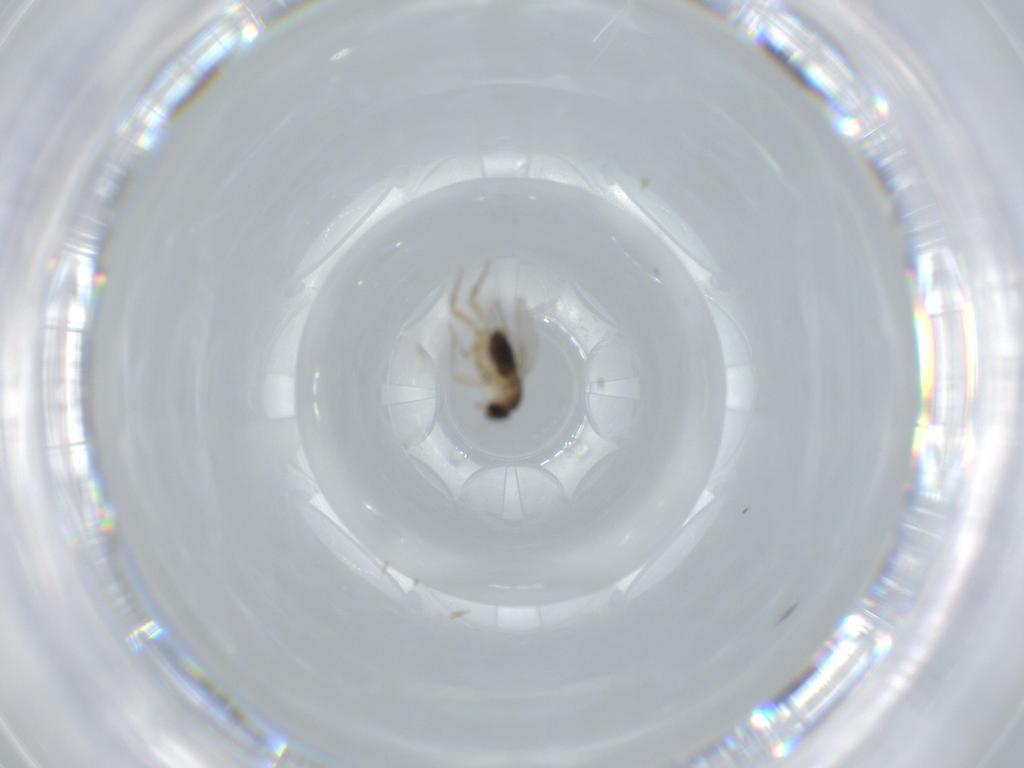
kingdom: Animalia
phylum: Arthropoda
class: Insecta
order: Diptera
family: Phoridae
